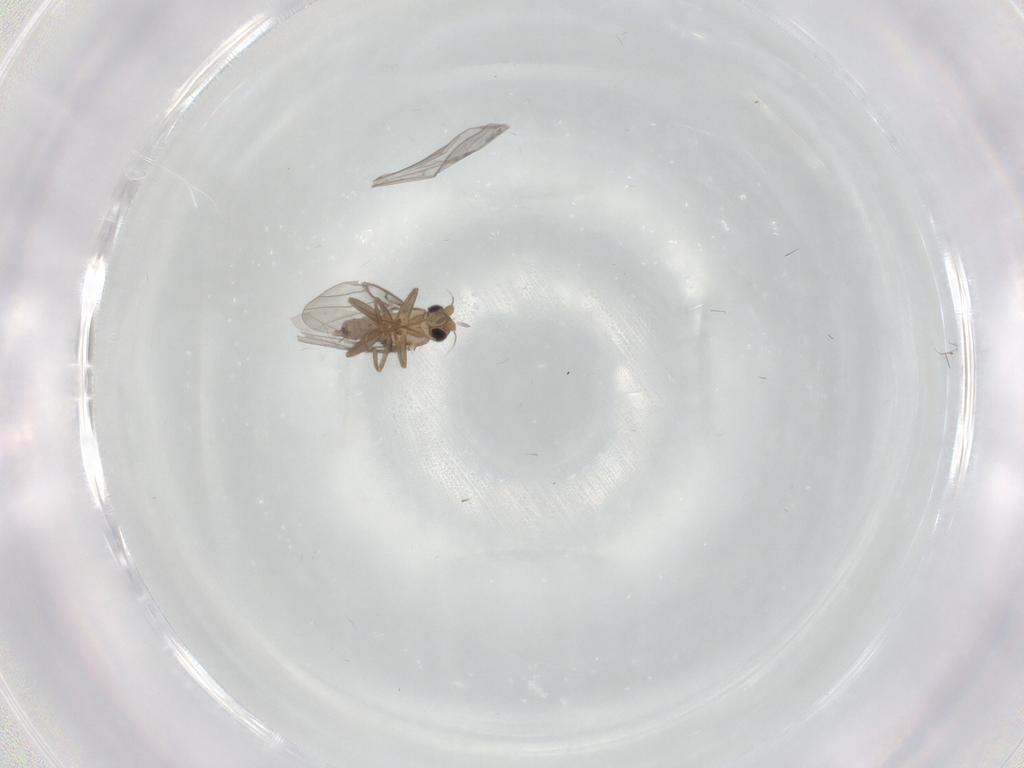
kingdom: Animalia
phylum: Arthropoda
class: Insecta
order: Diptera
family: Cecidomyiidae
